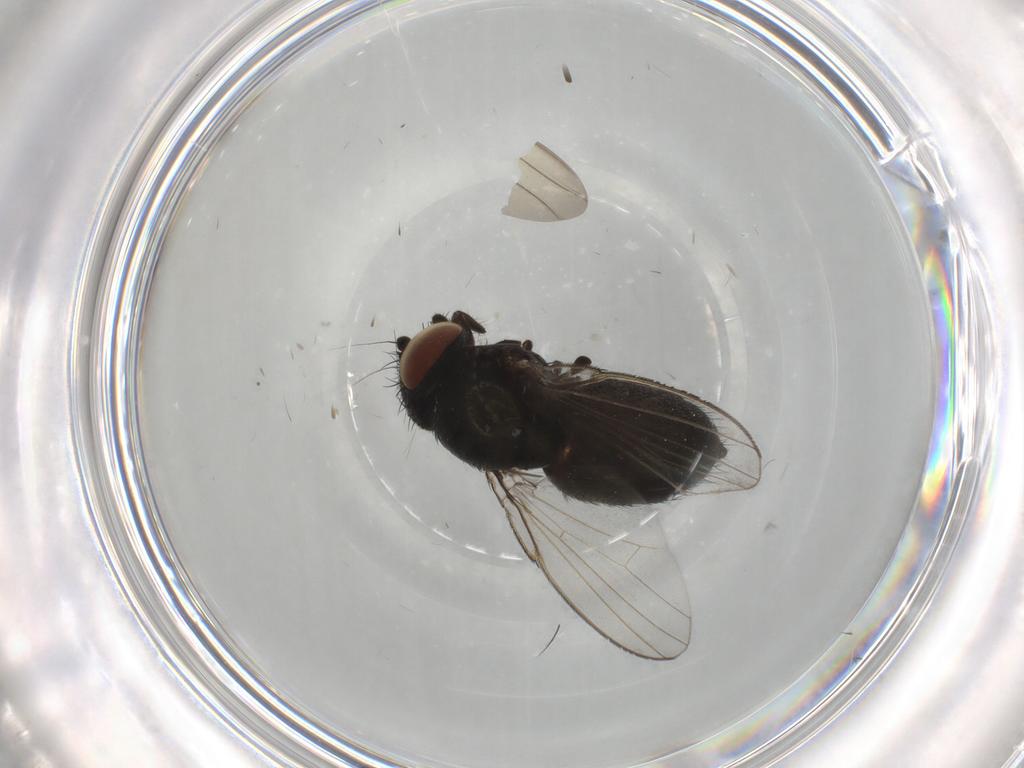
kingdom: Animalia
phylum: Arthropoda
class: Insecta
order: Diptera
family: Milichiidae
